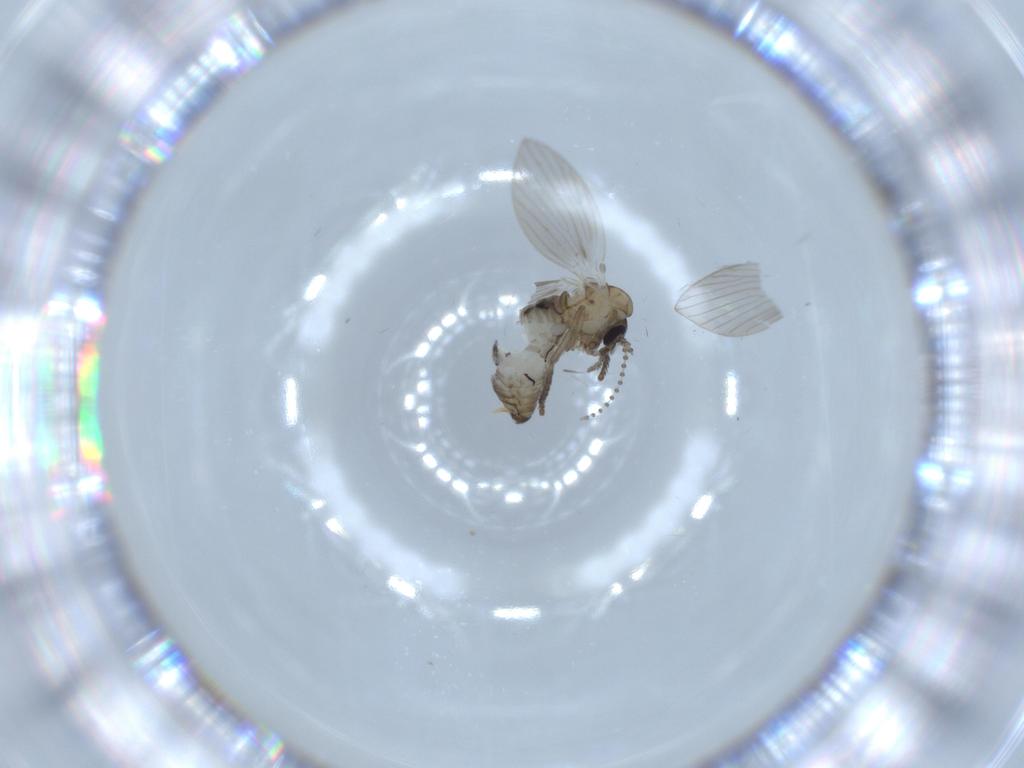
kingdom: Animalia
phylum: Arthropoda
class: Insecta
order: Diptera
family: Psychodidae
